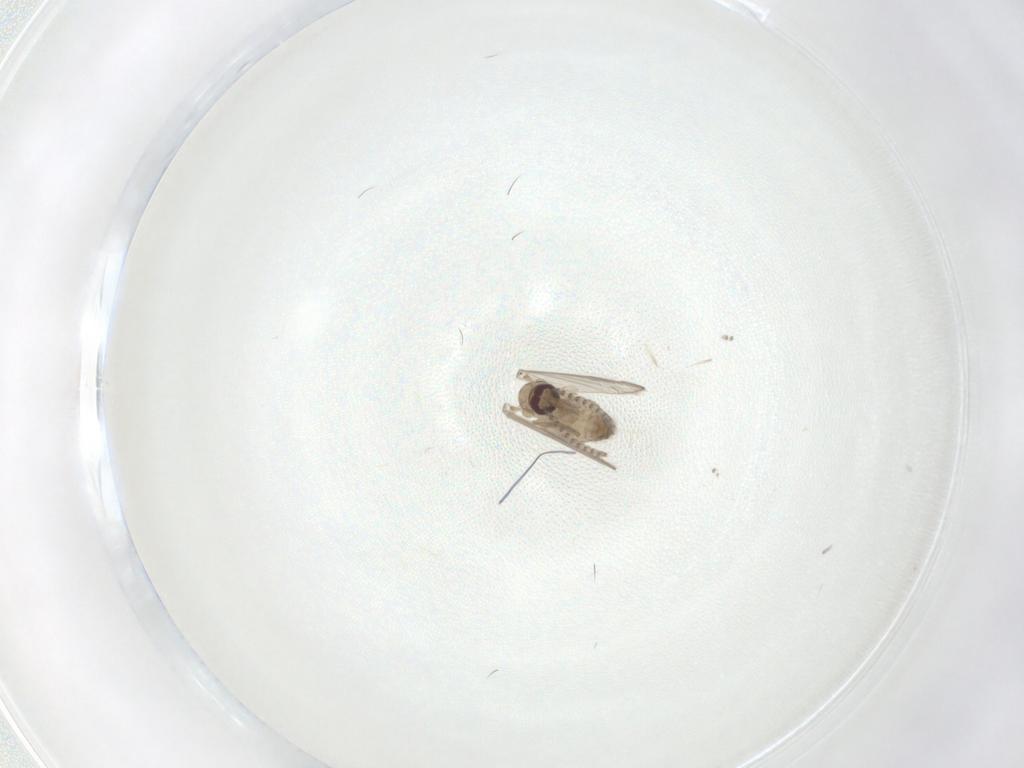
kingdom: Animalia
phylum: Arthropoda
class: Insecta
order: Diptera
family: Psychodidae
